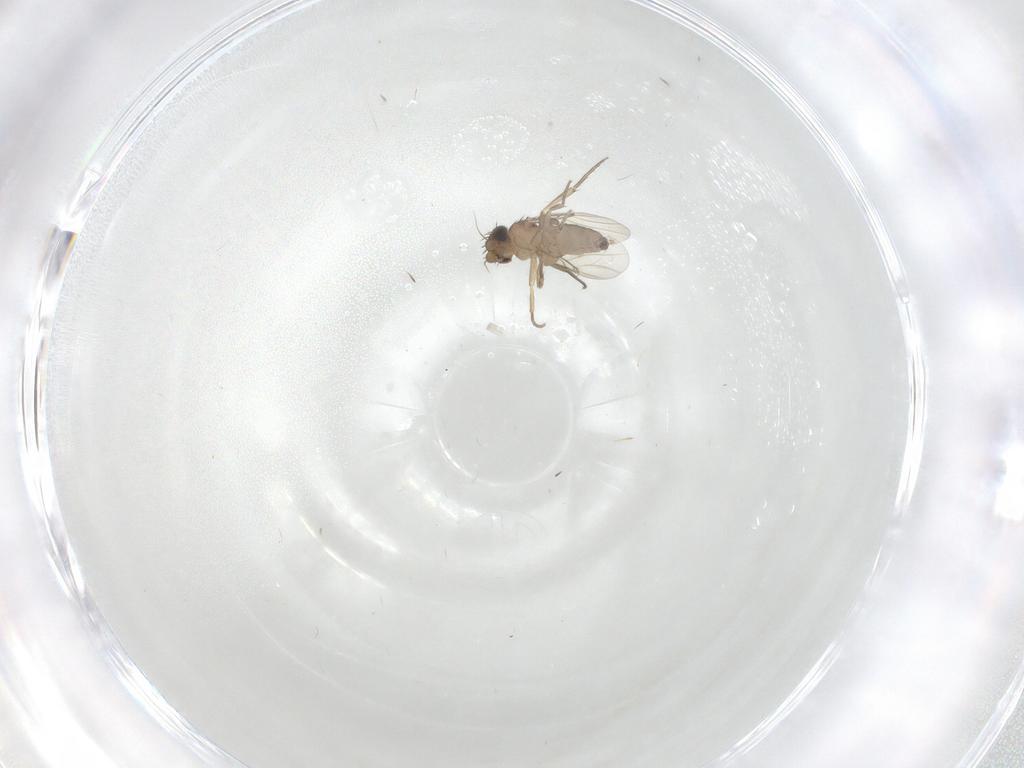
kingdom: Animalia
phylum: Arthropoda
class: Insecta
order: Diptera
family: Phoridae
